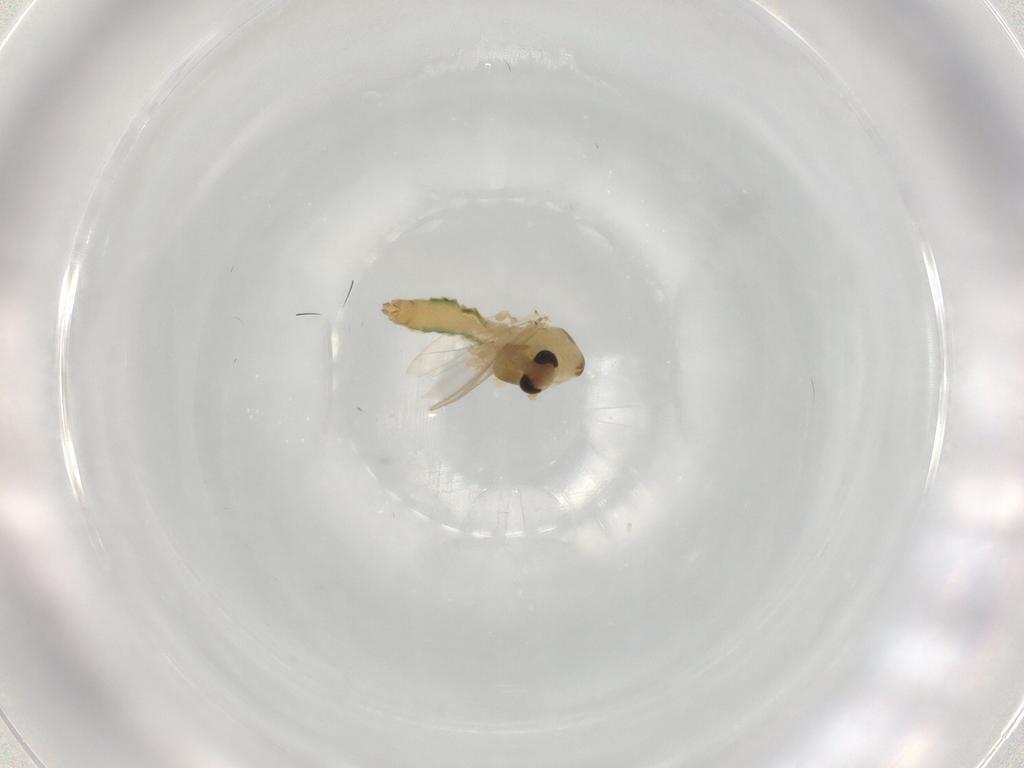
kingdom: Animalia
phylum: Arthropoda
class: Insecta
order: Diptera
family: Chironomidae
